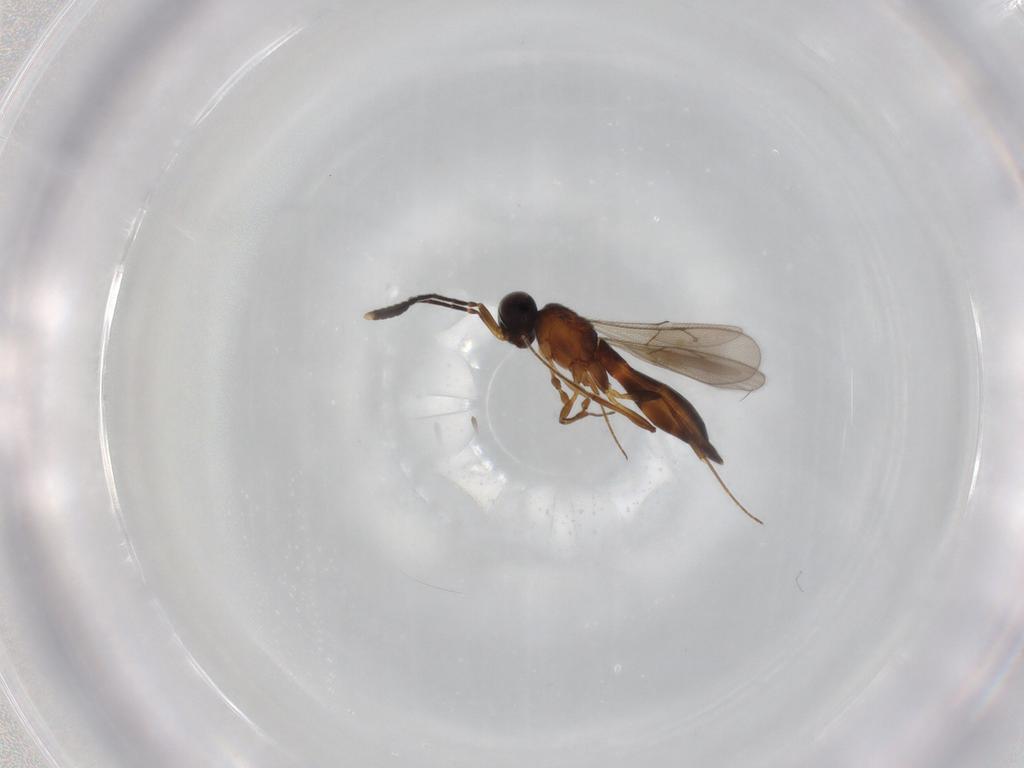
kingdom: Animalia
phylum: Arthropoda
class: Insecta
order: Hymenoptera
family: Scelionidae
